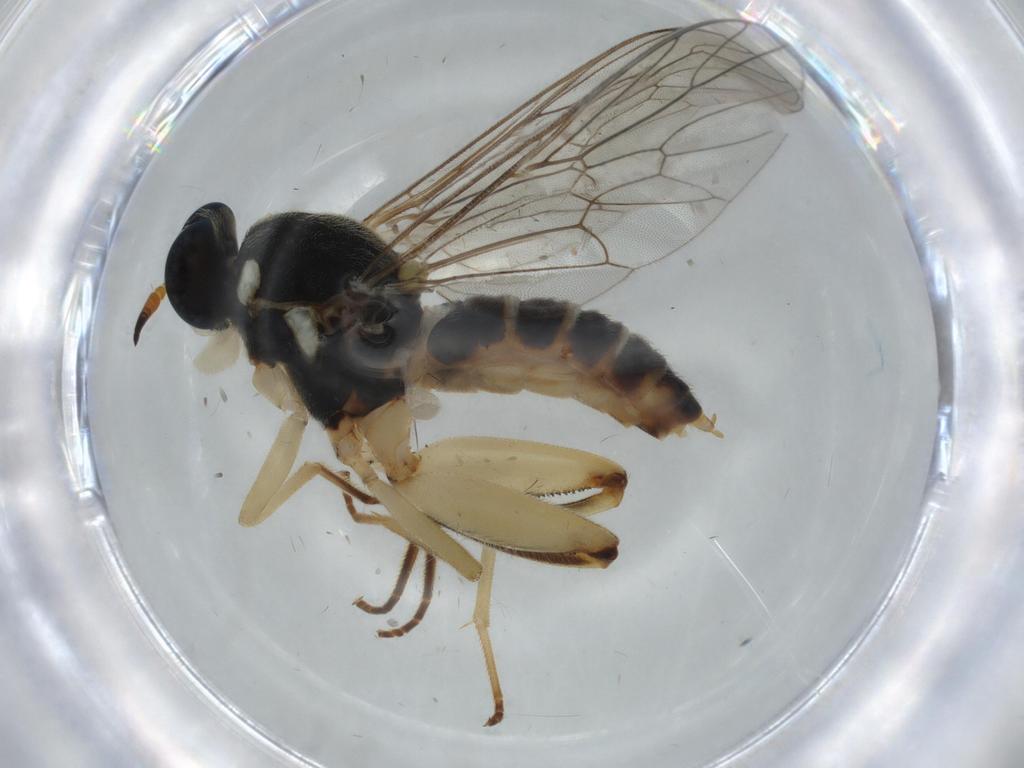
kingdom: Animalia
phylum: Arthropoda
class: Insecta
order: Diptera
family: Sciaridae
